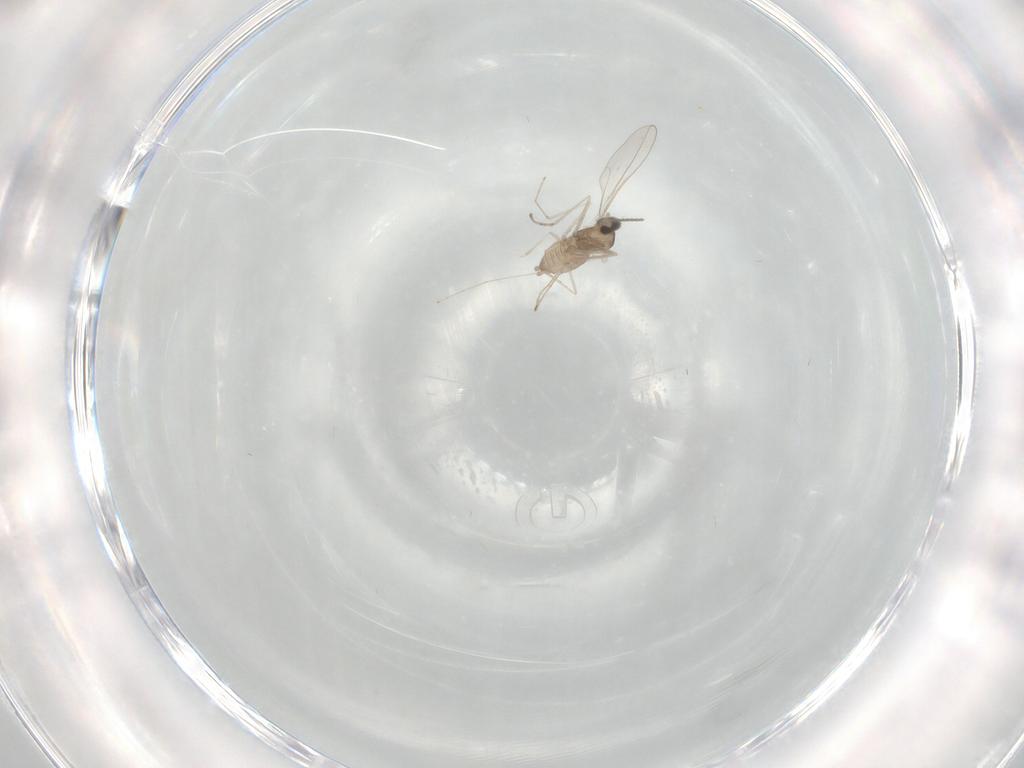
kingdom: Animalia
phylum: Arthropoda
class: Insecta
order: Diptera
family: Cecidomyiidae
